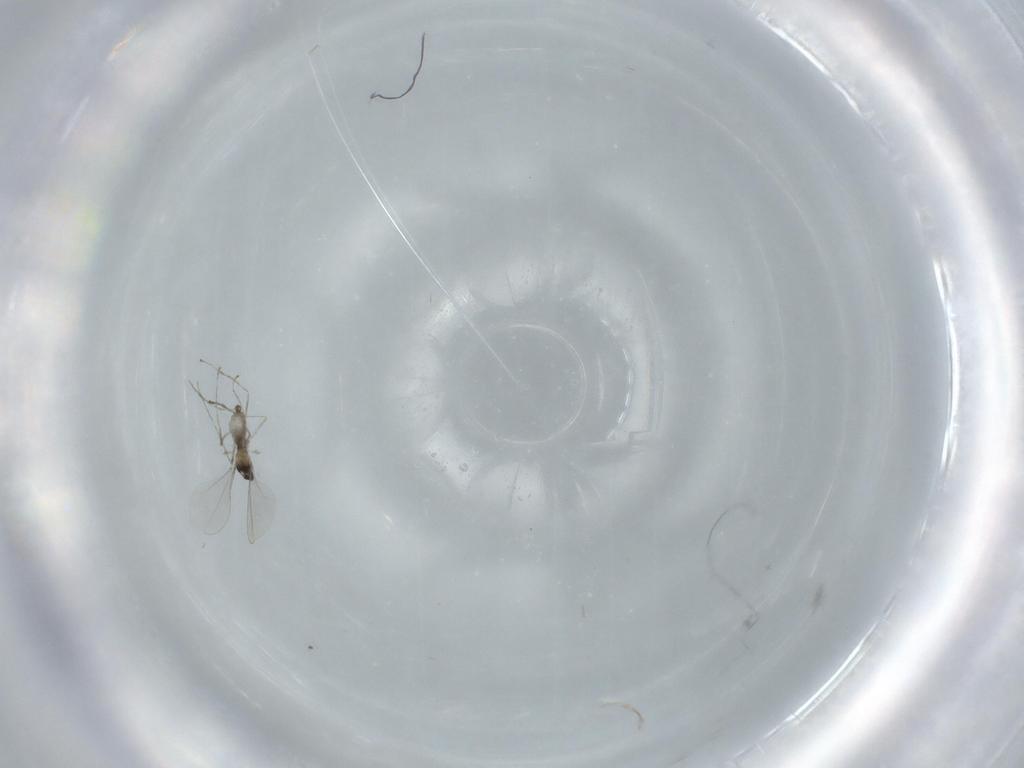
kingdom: Animalia
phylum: Arthropoda
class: Insecta
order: Diptera
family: Cecidomyiidae
